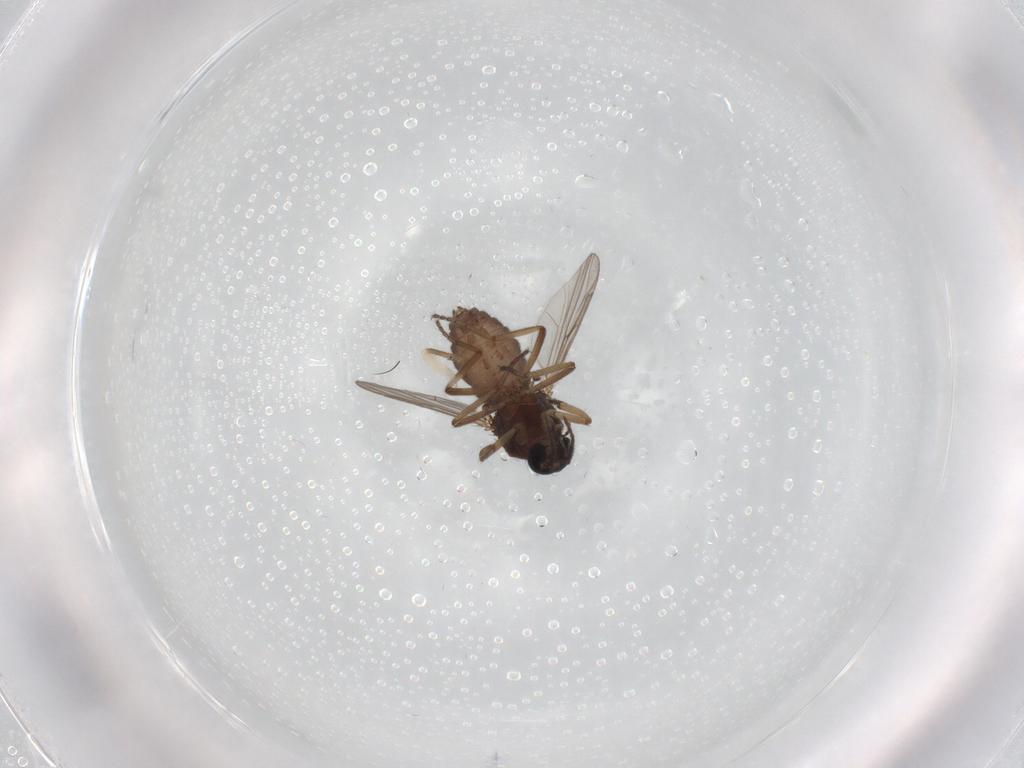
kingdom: Animalia
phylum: Arthropoda
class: Insecta
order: Diptera
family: Ceratopogonidae
